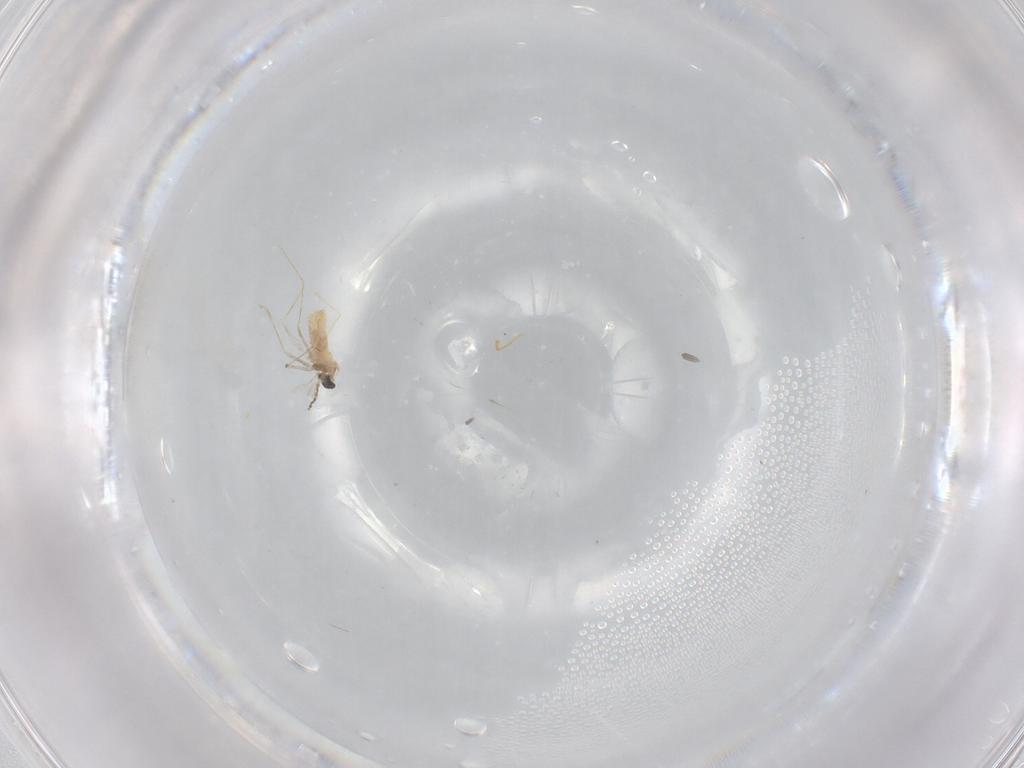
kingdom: Animalia
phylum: Arthropoda
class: Insecta
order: Diptera
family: Cecidomyiidae
